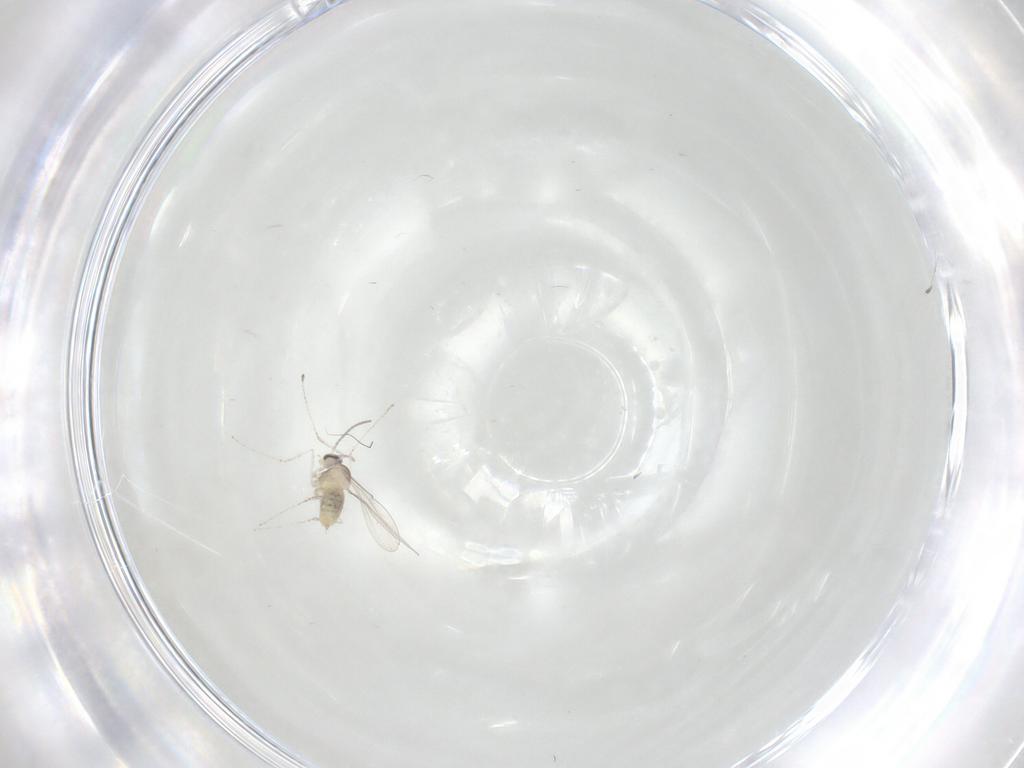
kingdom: Animalia
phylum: Arthropoda
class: Insecta
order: Diptera
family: Cecidomyiidae
